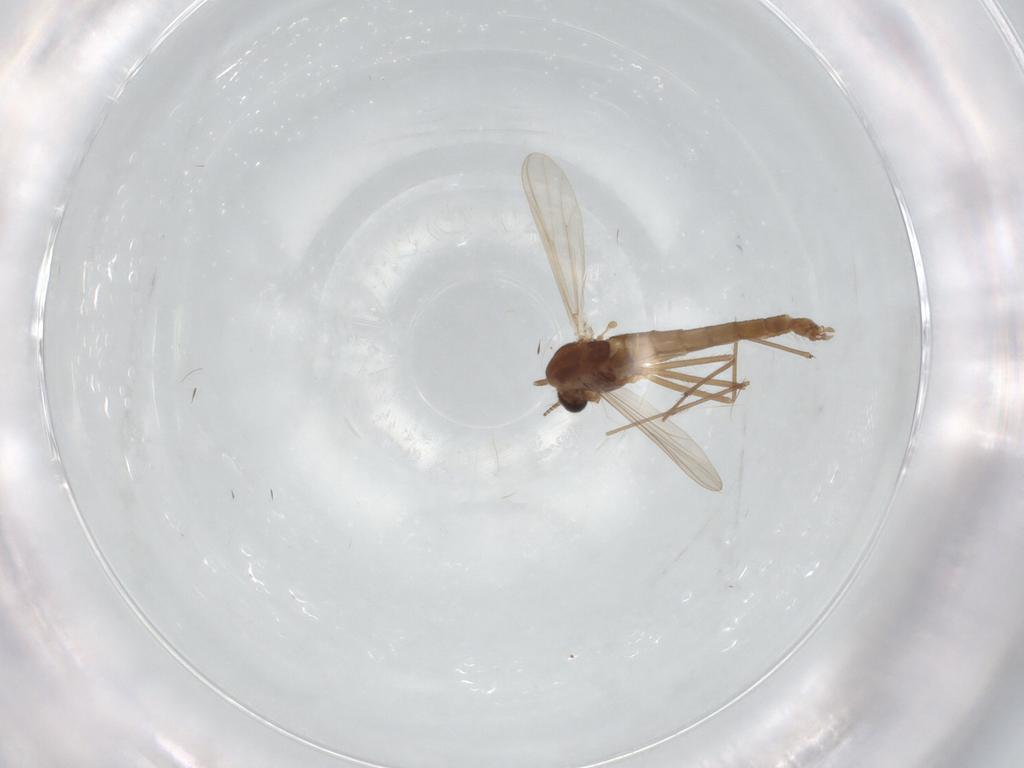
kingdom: Animalia
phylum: Arthropoda
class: Insecta
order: Diptera
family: Chironomidae
